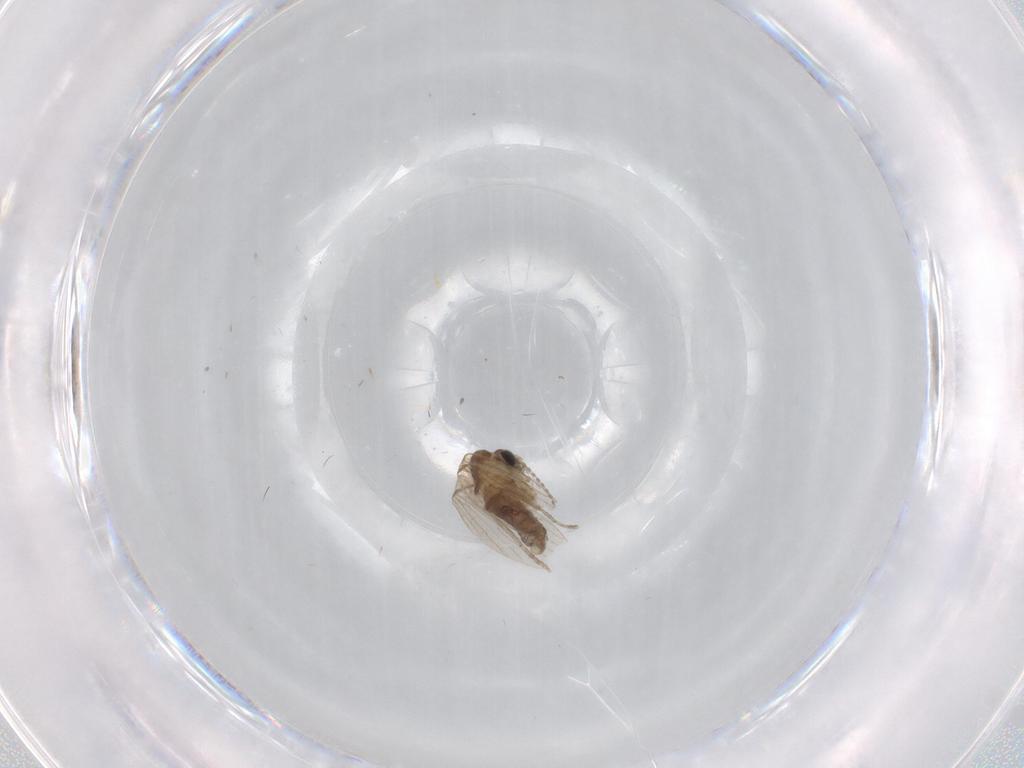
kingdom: Animalia
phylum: Arthropoda
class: Insecta
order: Diptera
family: Psychodidae
